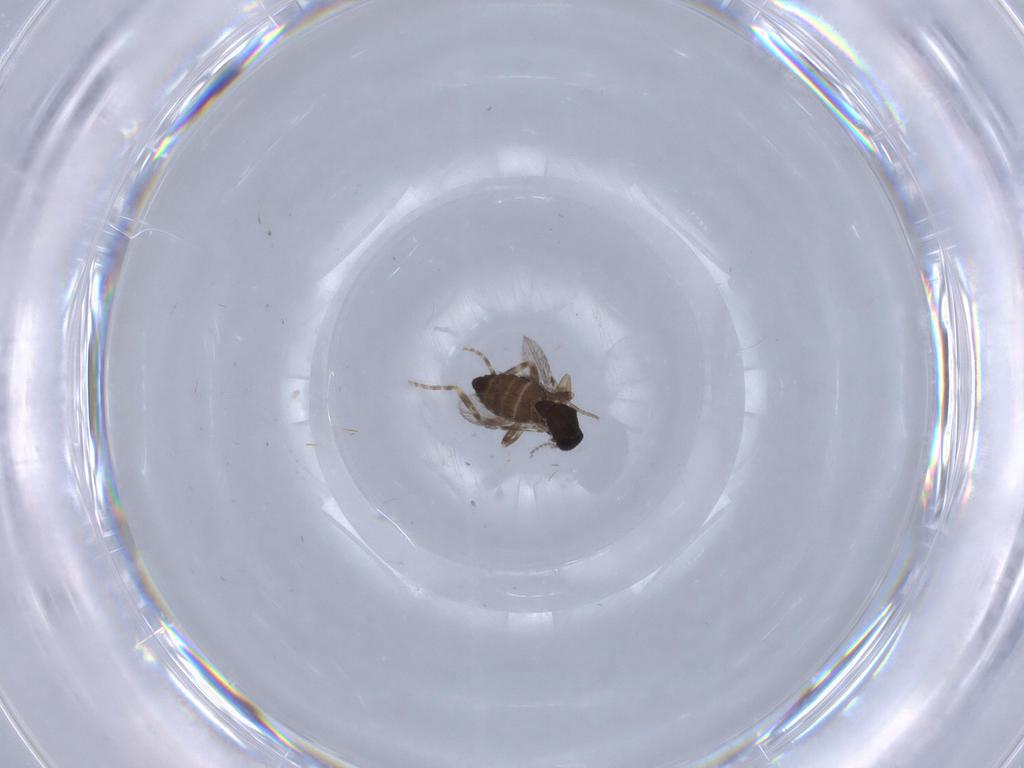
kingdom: Animalia
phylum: Arthropoda
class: Insecta
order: Diptera
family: Ceratopogonidae
